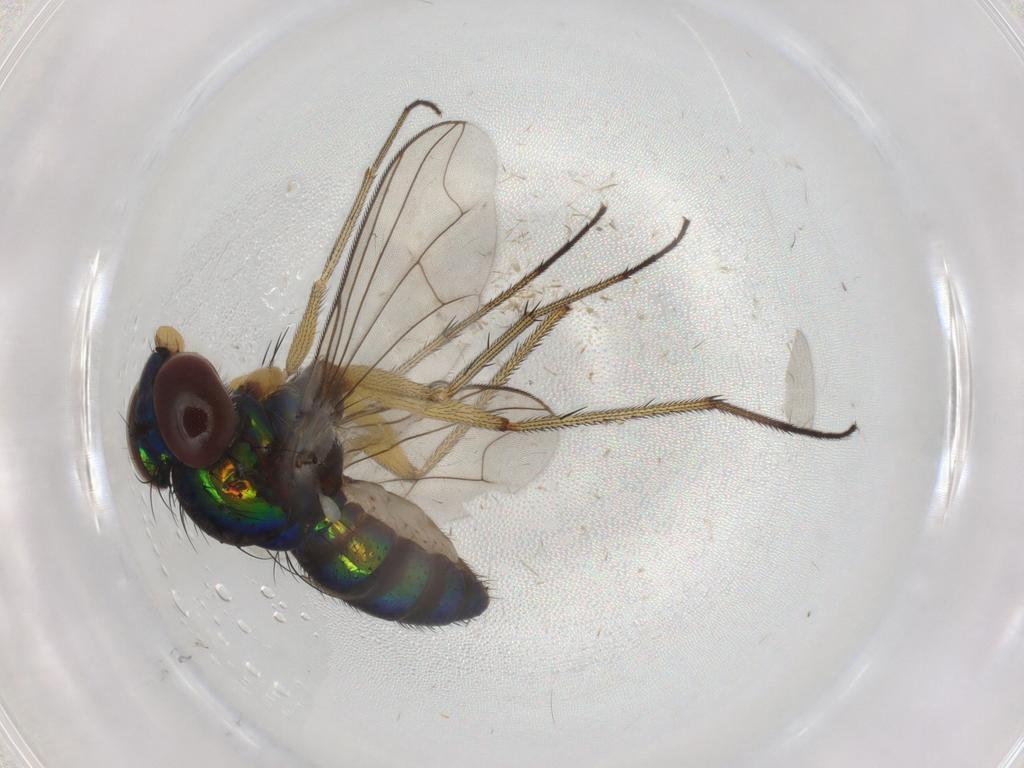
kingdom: Animalia
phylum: Arthropoda
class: Insecta
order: Diptera
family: Dolichopodidae
